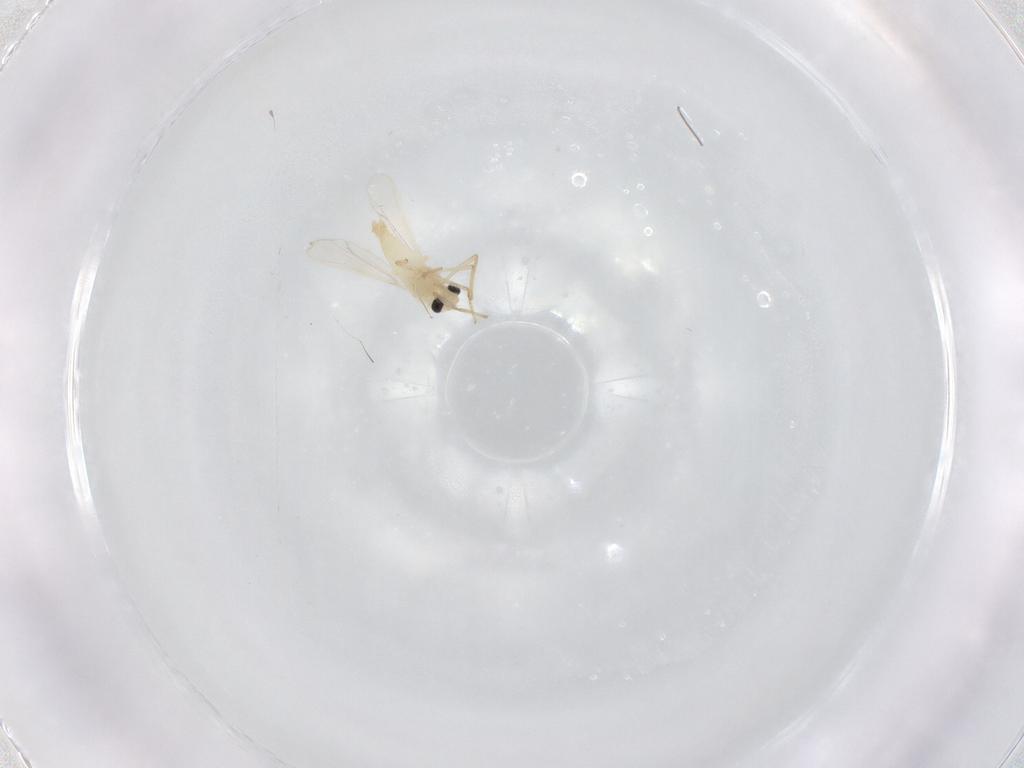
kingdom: Animalia
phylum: Arthropoda
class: Insecta
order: Diptera
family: Chironomidae
